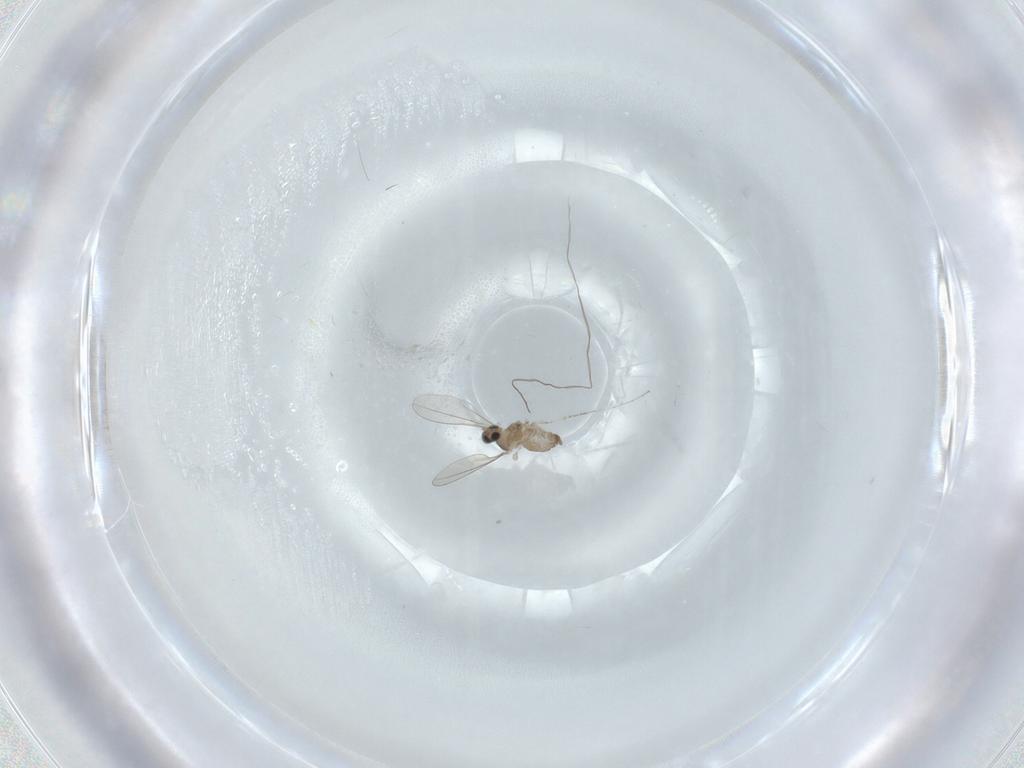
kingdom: Animalia
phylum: Arthropoda
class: Insecta
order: Diptera
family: Cecidomyiidae
